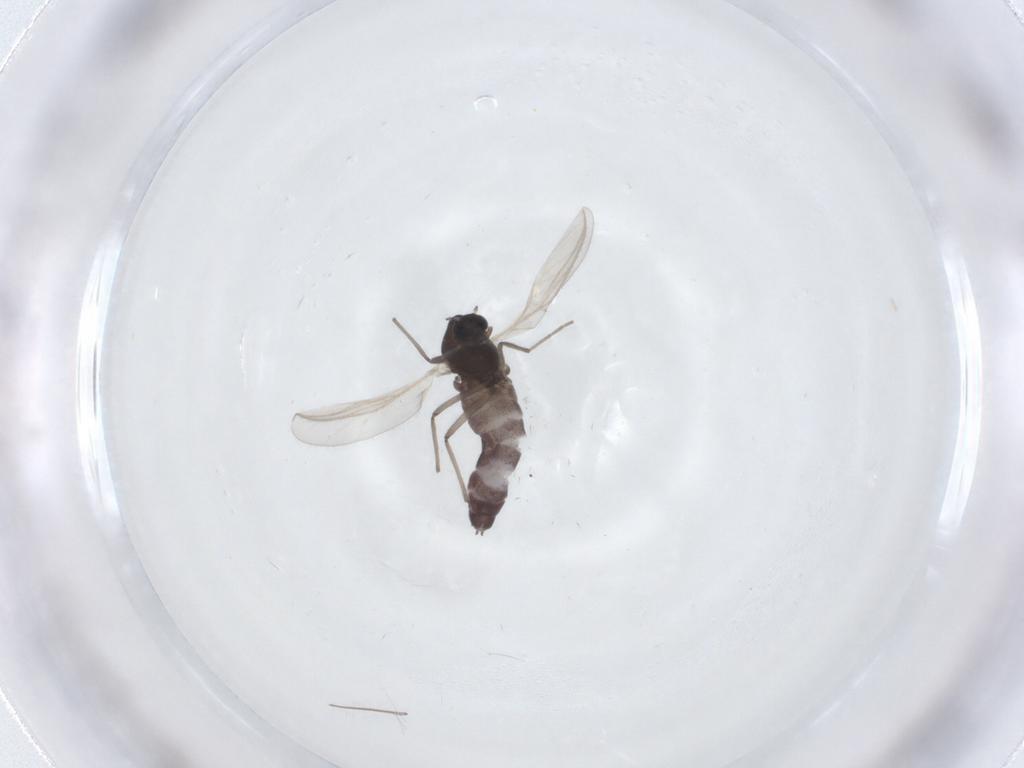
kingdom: Animalia
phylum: Arthropoda
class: Insecta
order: Diptera
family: Chironomidae
